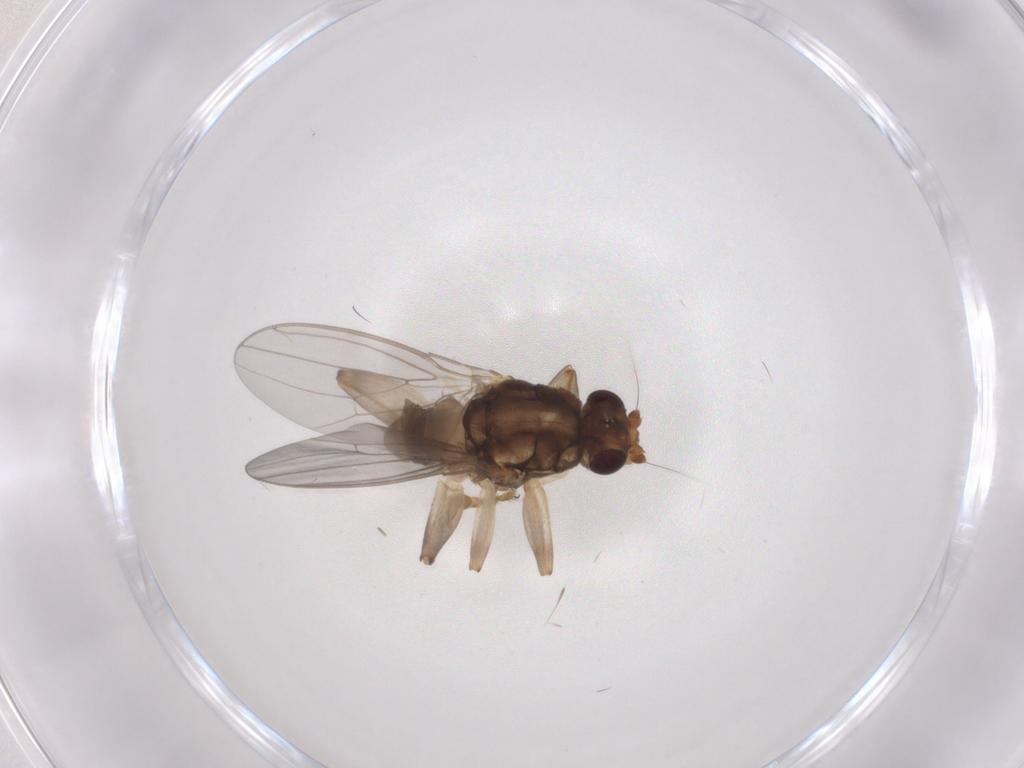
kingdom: Animalia
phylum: Arthropoda
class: Insecta
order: Diptera
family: Sphaeroceridae
